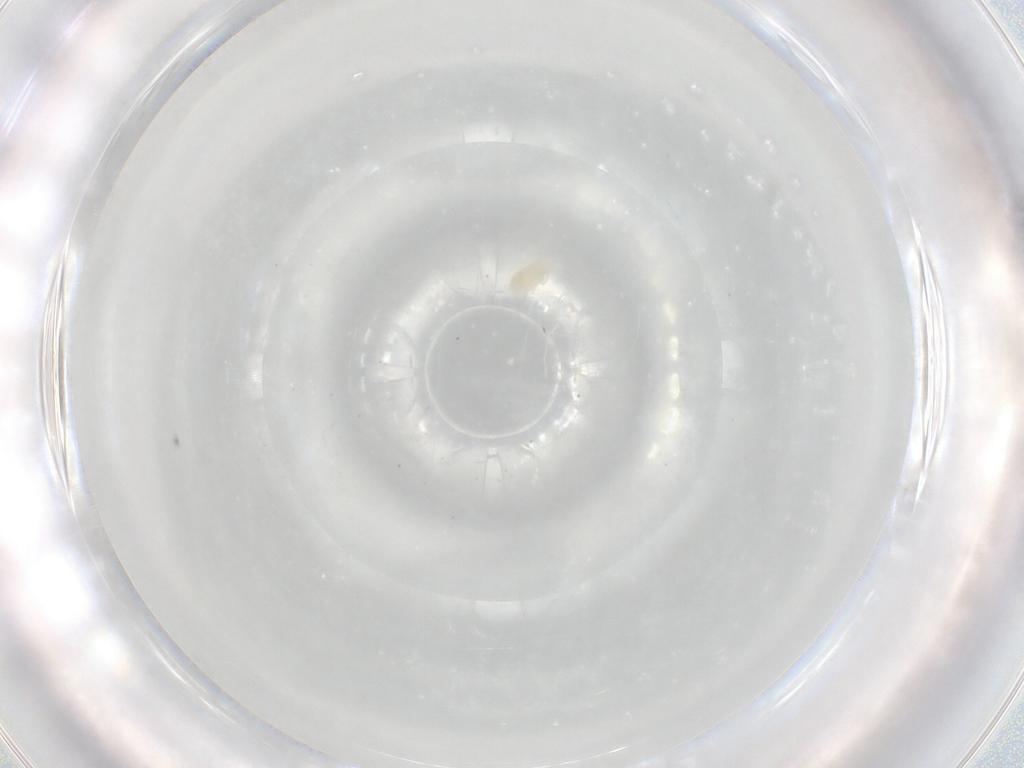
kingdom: Animalia
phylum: Arthropoda
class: Arachnida
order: Trombidiformes
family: Eupodidae
